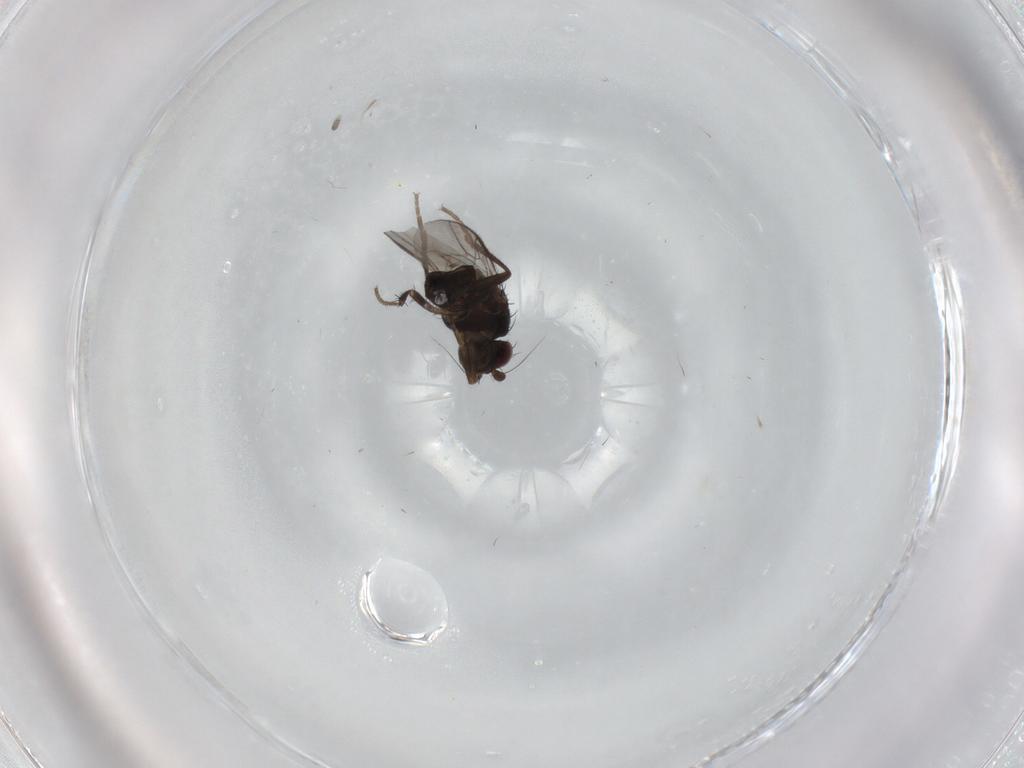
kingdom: Animalia
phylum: Arthropoda
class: Insecta
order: Diptera
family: Sphaeroceridae
